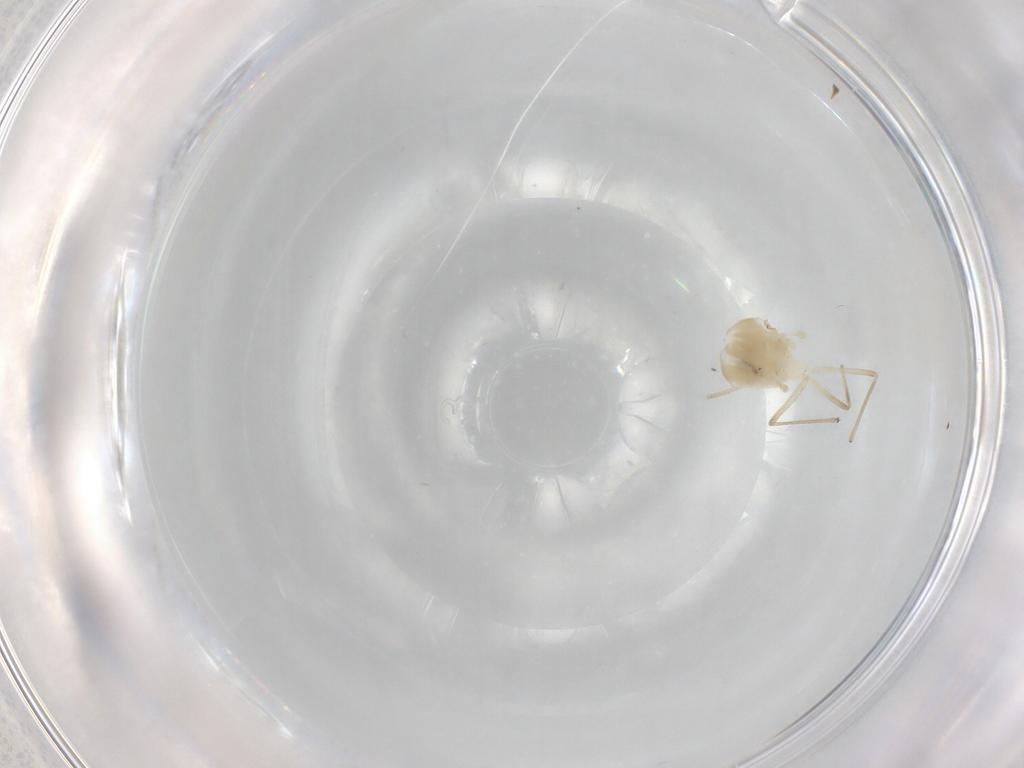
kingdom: Animalia
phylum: Arthropoda
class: Insecta
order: Diptera
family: Chironomidae
